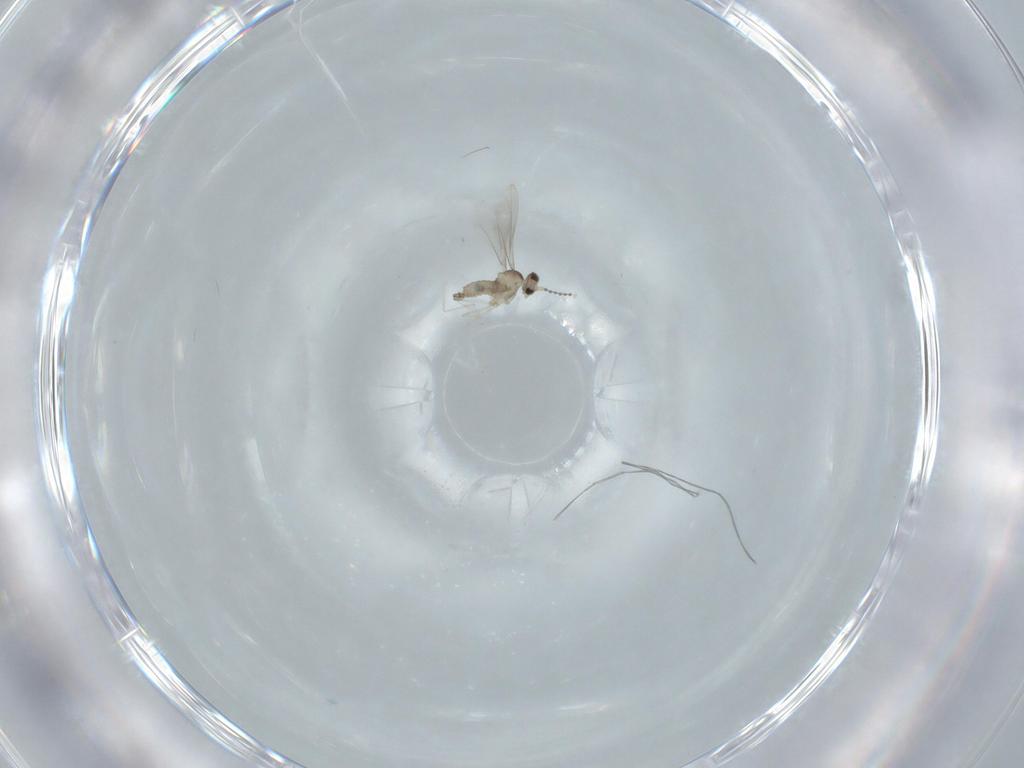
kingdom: Animalia
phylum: Arthropoda
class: Insecta
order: Diptera
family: Cecidomyiidae
